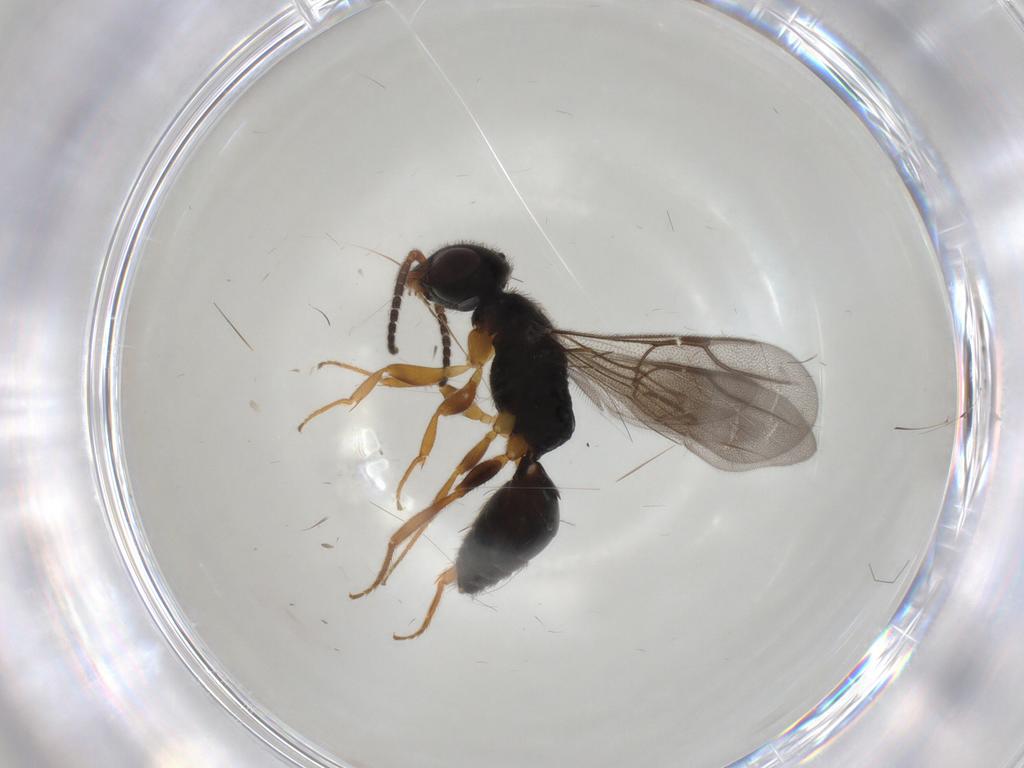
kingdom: Animalia
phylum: Arthropoda
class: Insecta
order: Hymenoptera
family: Bethylidae
